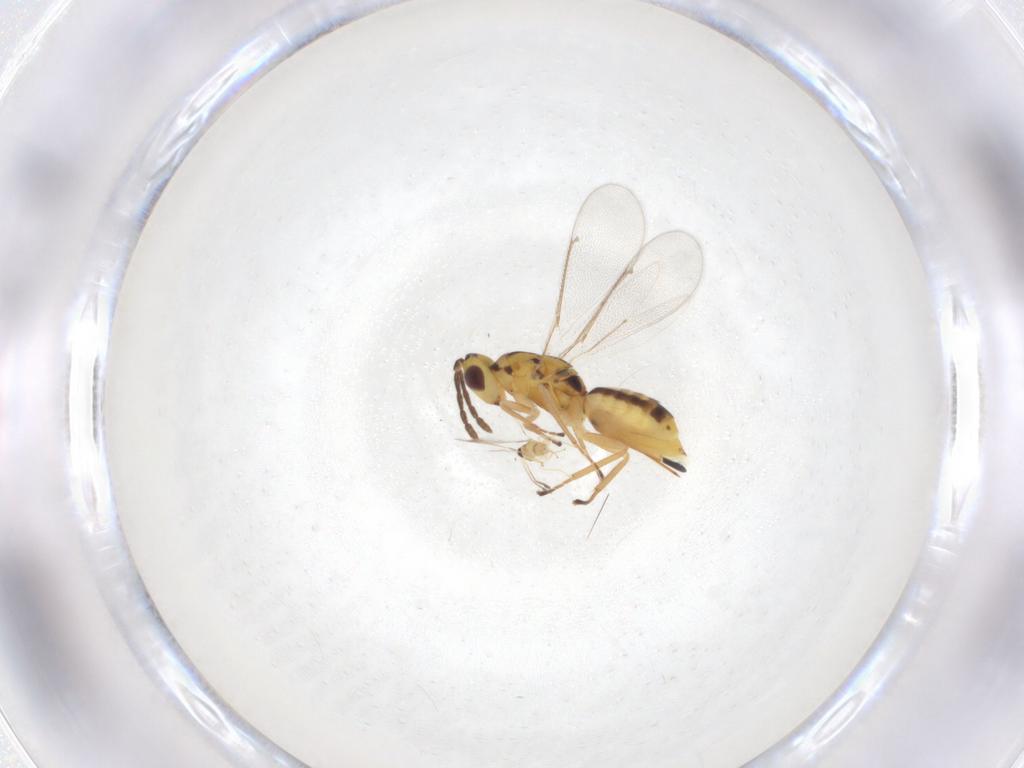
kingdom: Animalia
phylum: Arthropoda
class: Insecta
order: Hymenoptera
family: Eulophidae
